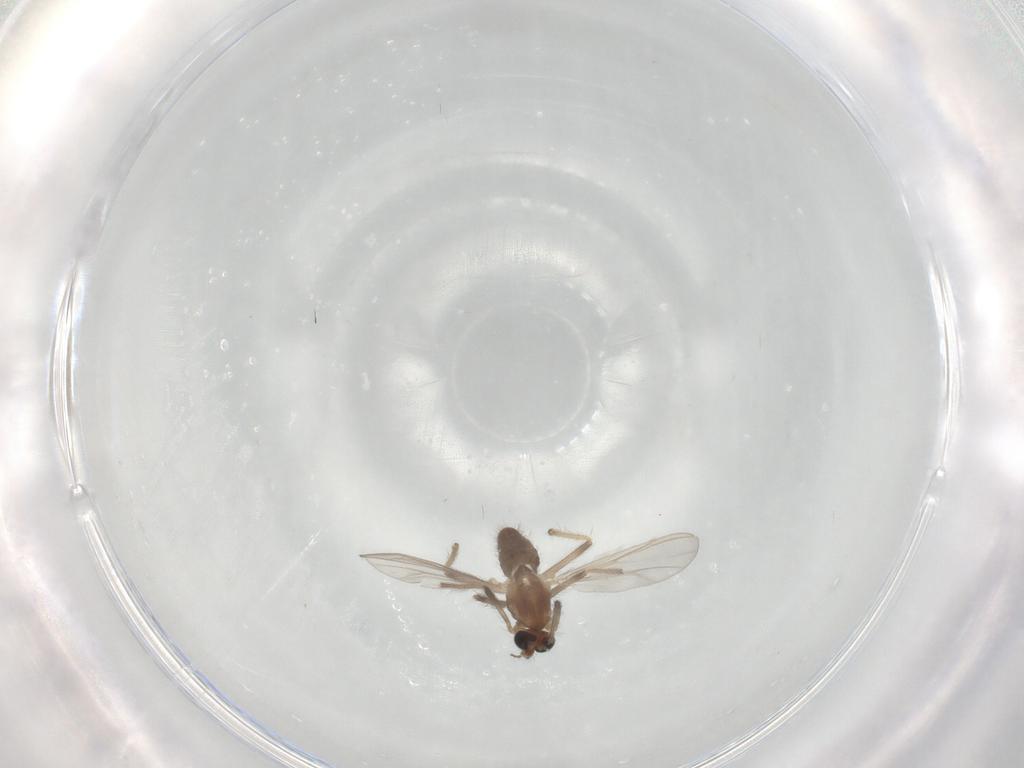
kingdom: Animalia
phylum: Arthropoda
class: Insecta
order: Diptera
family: Chironomidae
